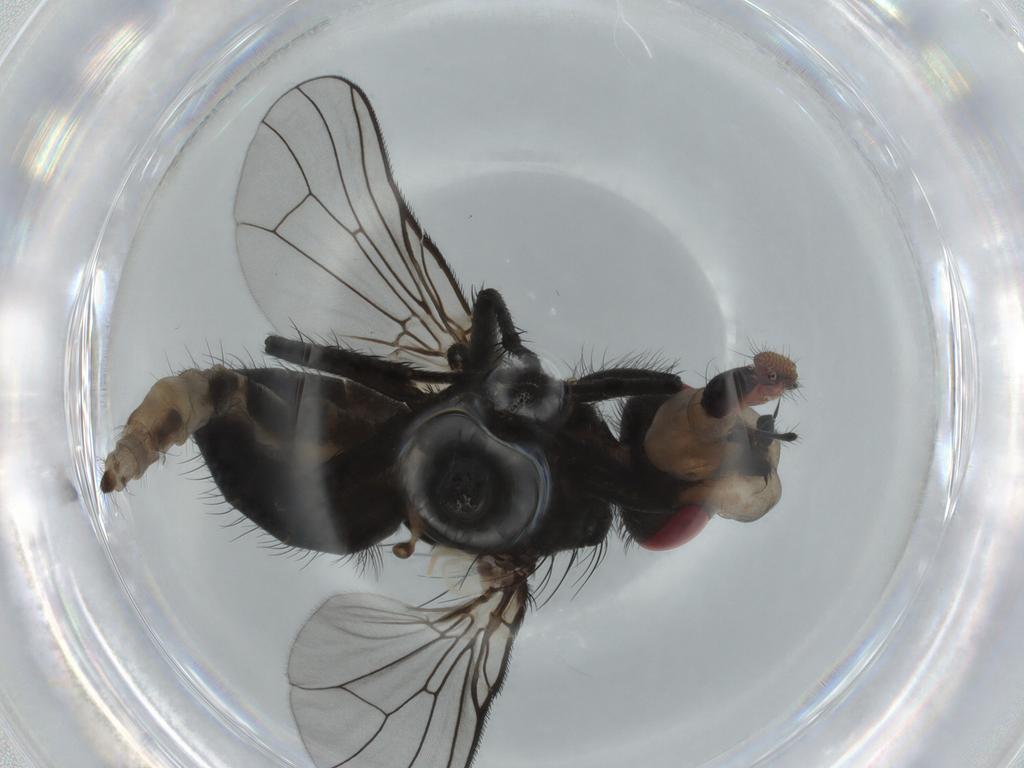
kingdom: Animalia
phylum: Arthropoda
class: Insecta
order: Diptera
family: Muscidae
